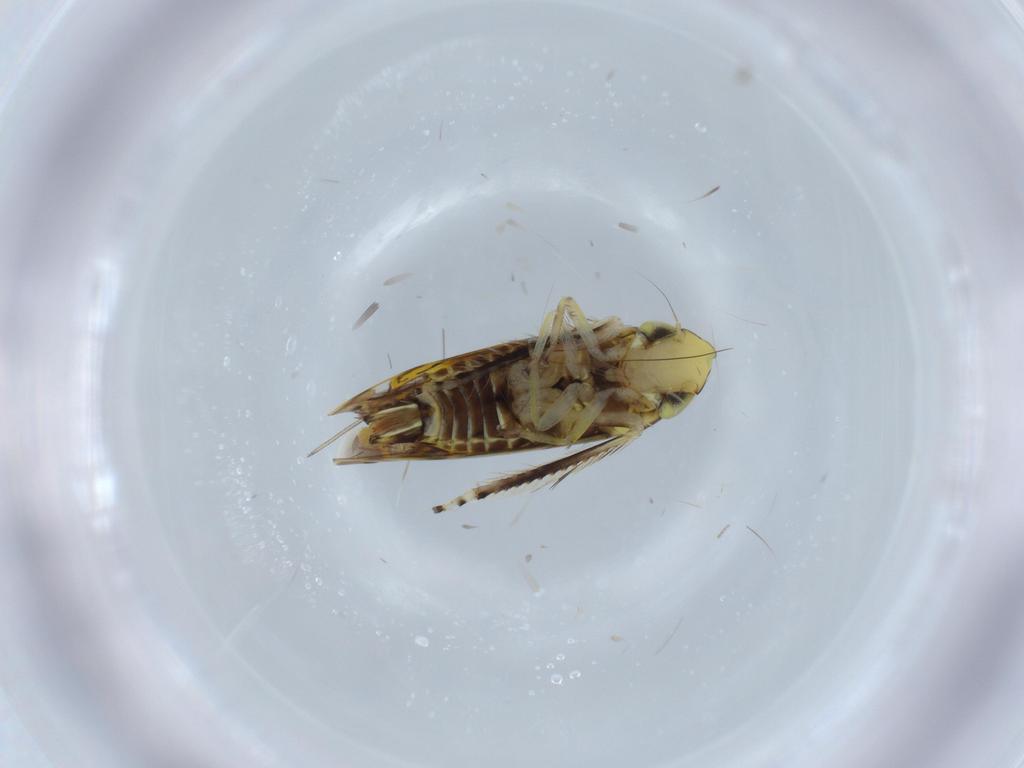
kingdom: Animalia
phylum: Arthropoda
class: Insecta
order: Hemiptera
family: Cicadellidae
